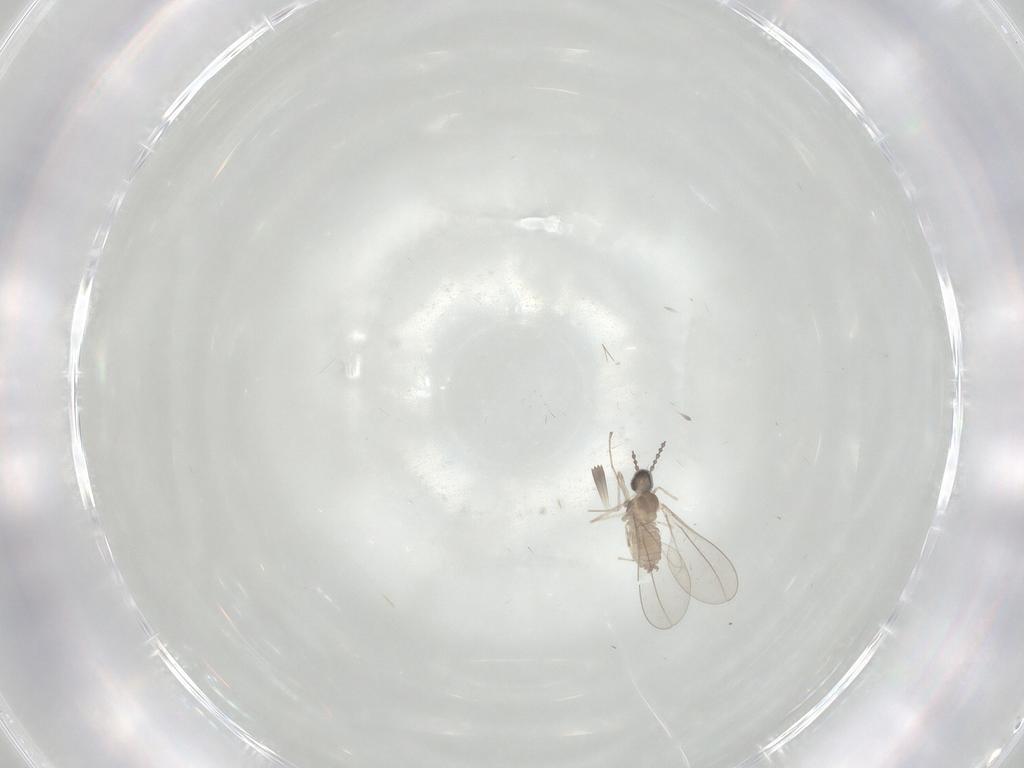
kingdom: Animalia
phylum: Arthropoda
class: Insecta
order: Diptera
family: Cecidomyiidae
